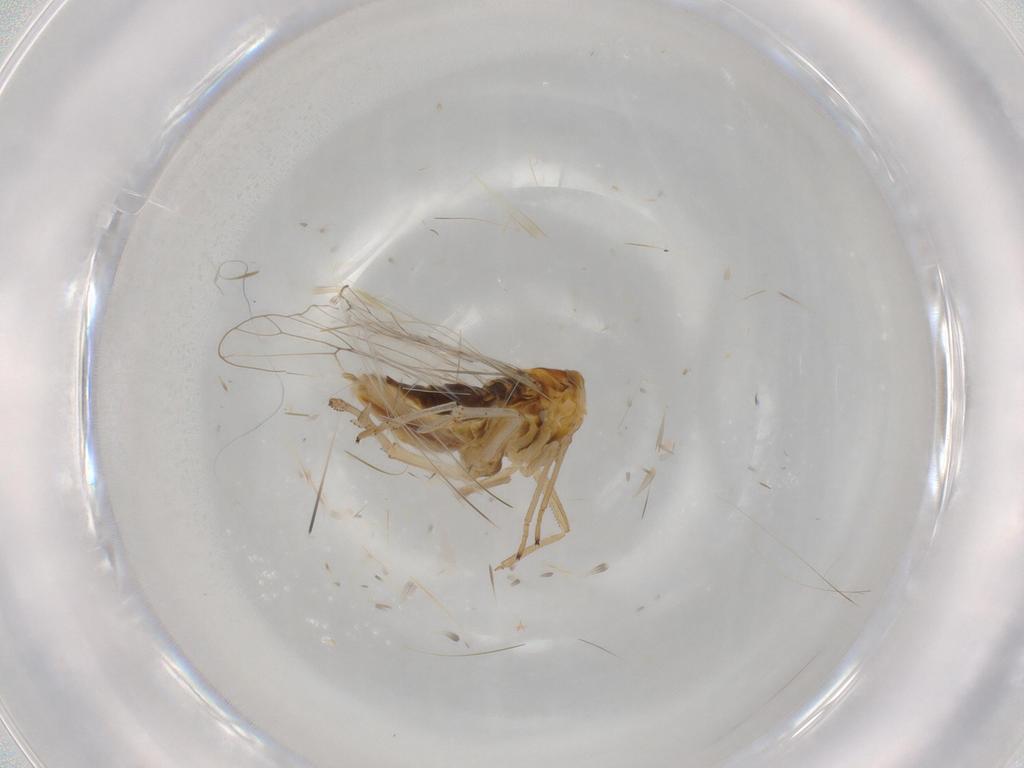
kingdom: Animalia
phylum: Arthropoda
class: Insecta
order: Hemiptera
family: Delphacidae
